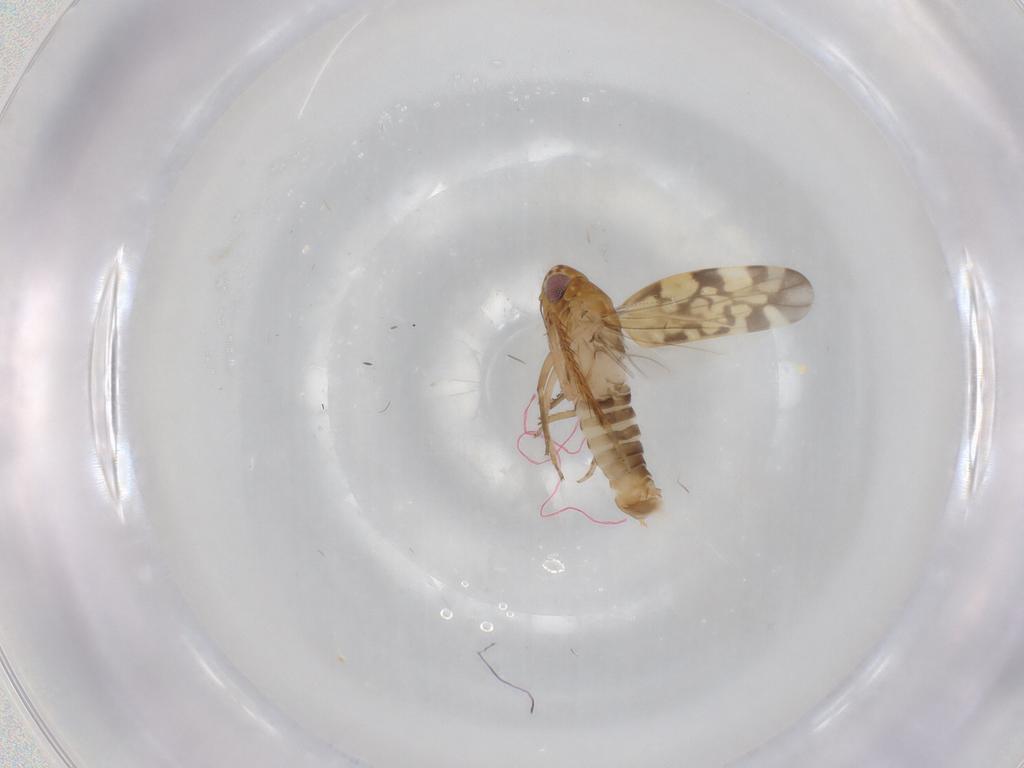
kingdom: Animalia
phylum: Arthropoda
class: Insecta
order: Hemiptera
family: Cicadellidae
